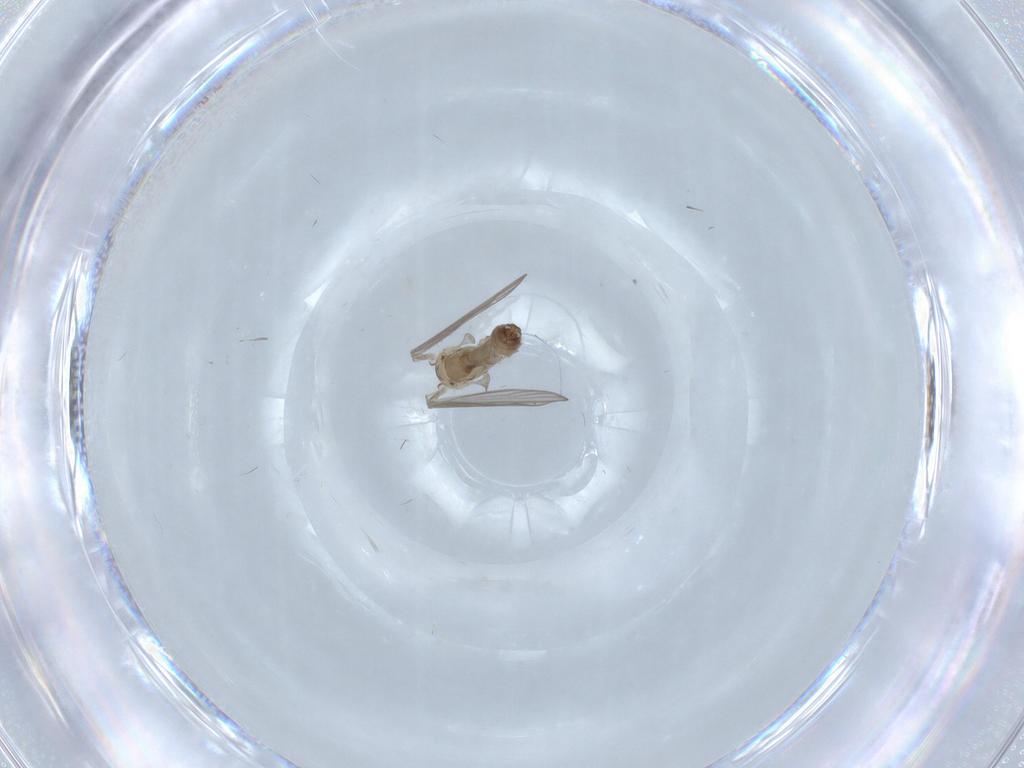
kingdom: Animalia
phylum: Arthropoda
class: Insecta
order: Diptera
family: Psychodidae
